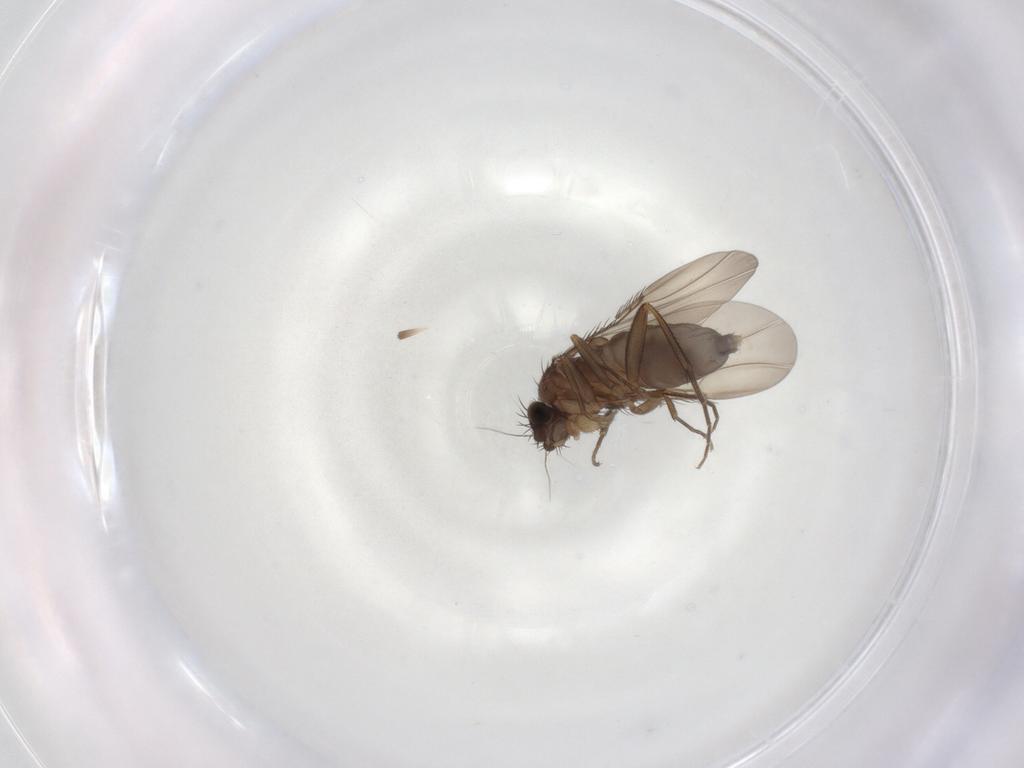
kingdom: Animalia
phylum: Arthropoda
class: Insecta
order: Diptera
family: Phoridae
